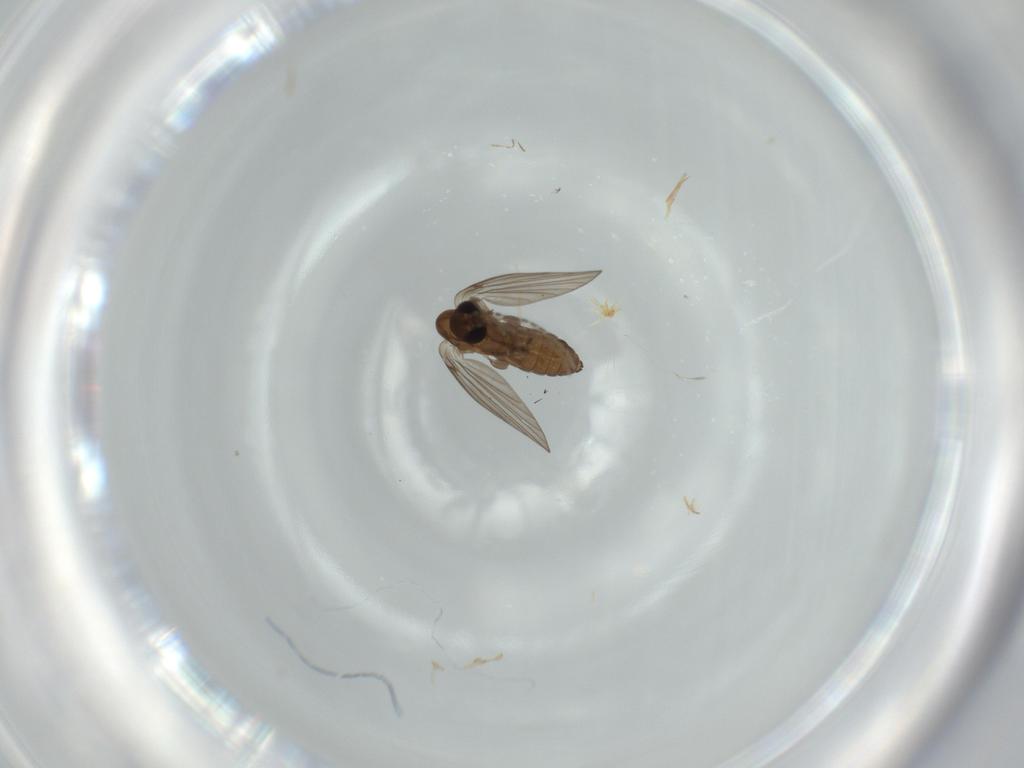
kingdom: Animalia
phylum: Arthropoda
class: Insecta
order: Diptera
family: Psychodidae
